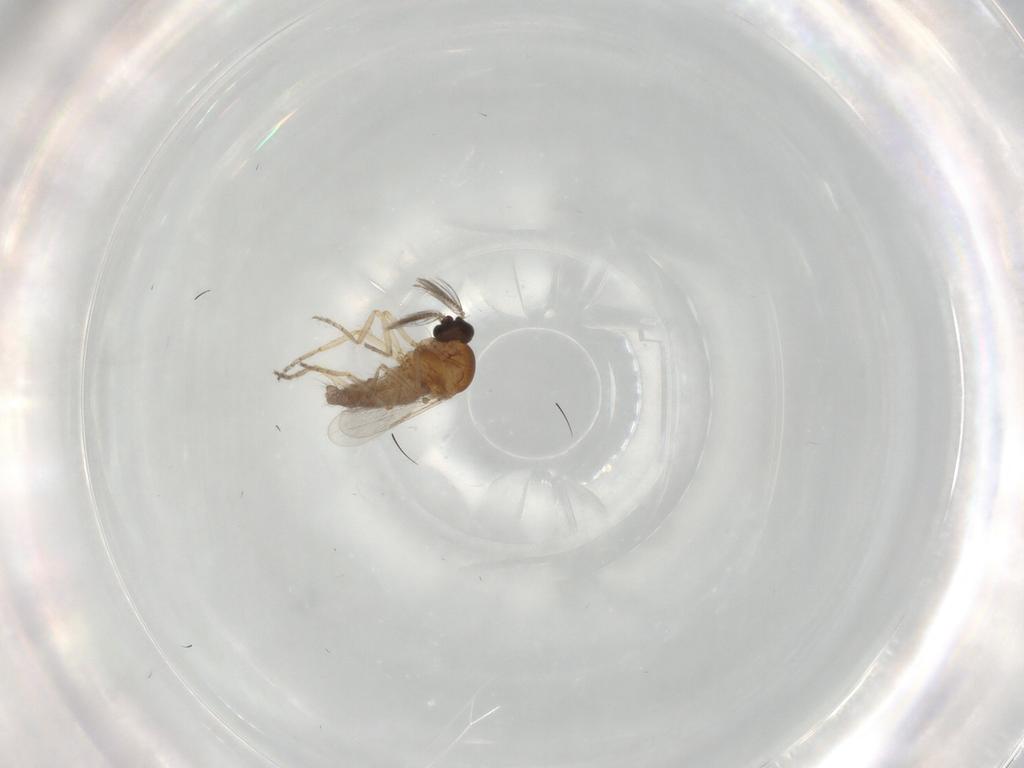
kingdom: Animalia
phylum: Arthropoda
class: Insecta
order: Diptera
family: Ceratopogonidae
